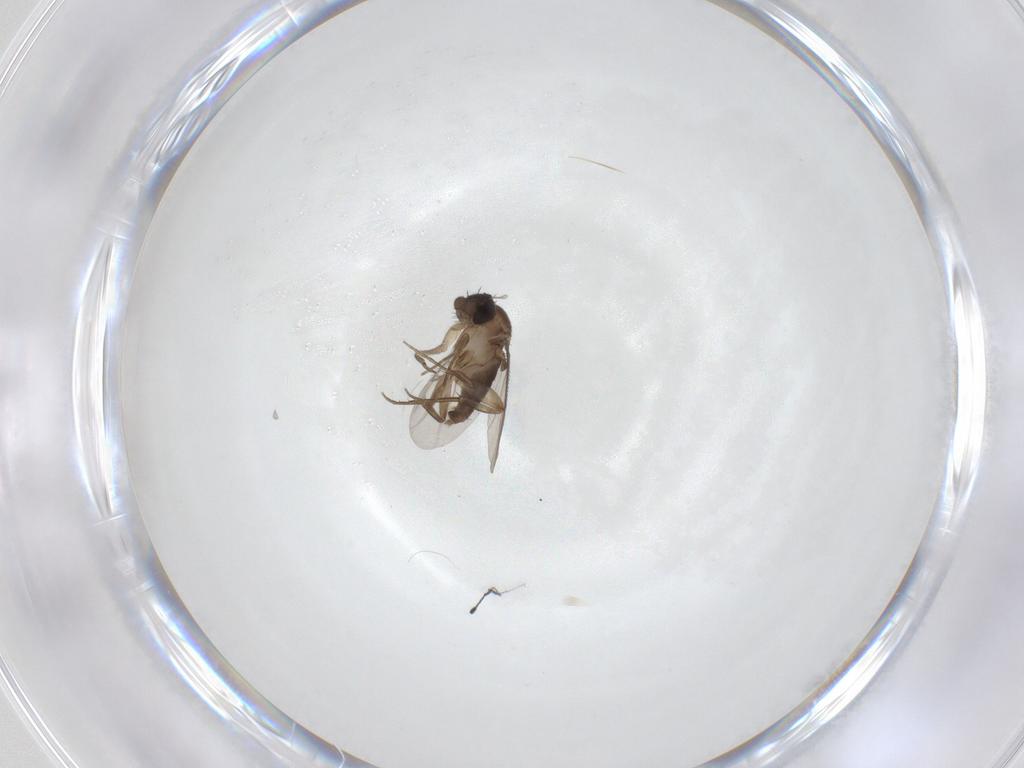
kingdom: Animalia
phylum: Arthropoda
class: Insecta
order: Diptera
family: Phoridae
